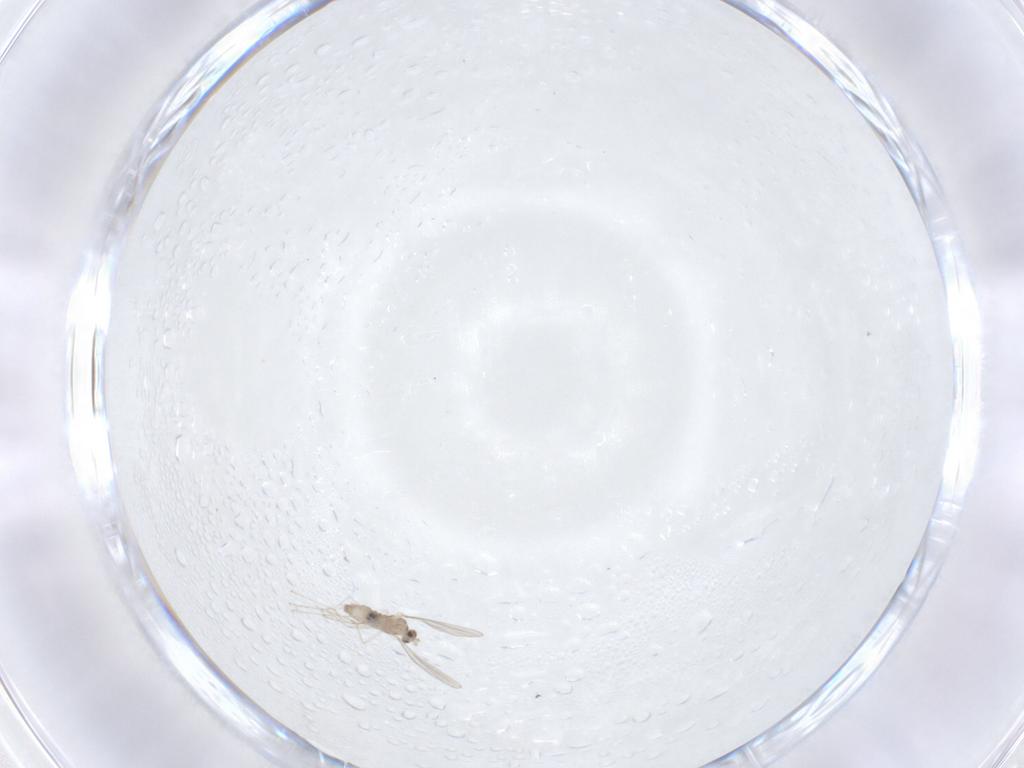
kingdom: Animalia
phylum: Arthropoda
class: Insecta
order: Diptera
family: Cecidomyiidae
